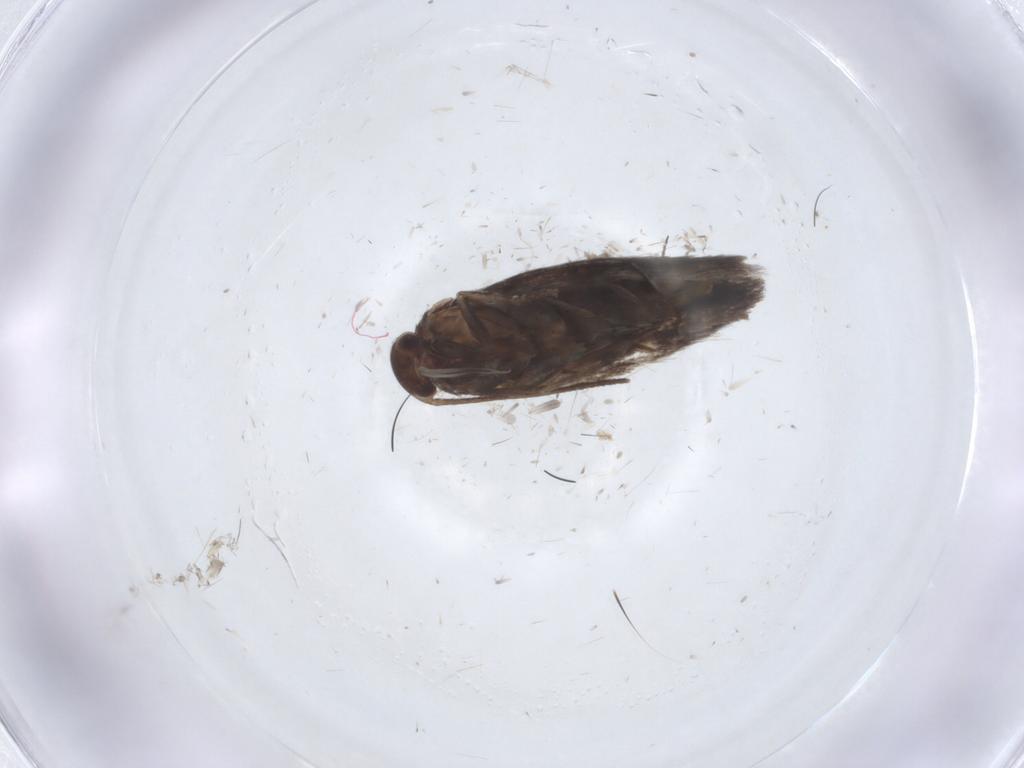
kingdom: Animalia
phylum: Arthropoda
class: Insecta
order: Lepidoptera
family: Elachistidae
